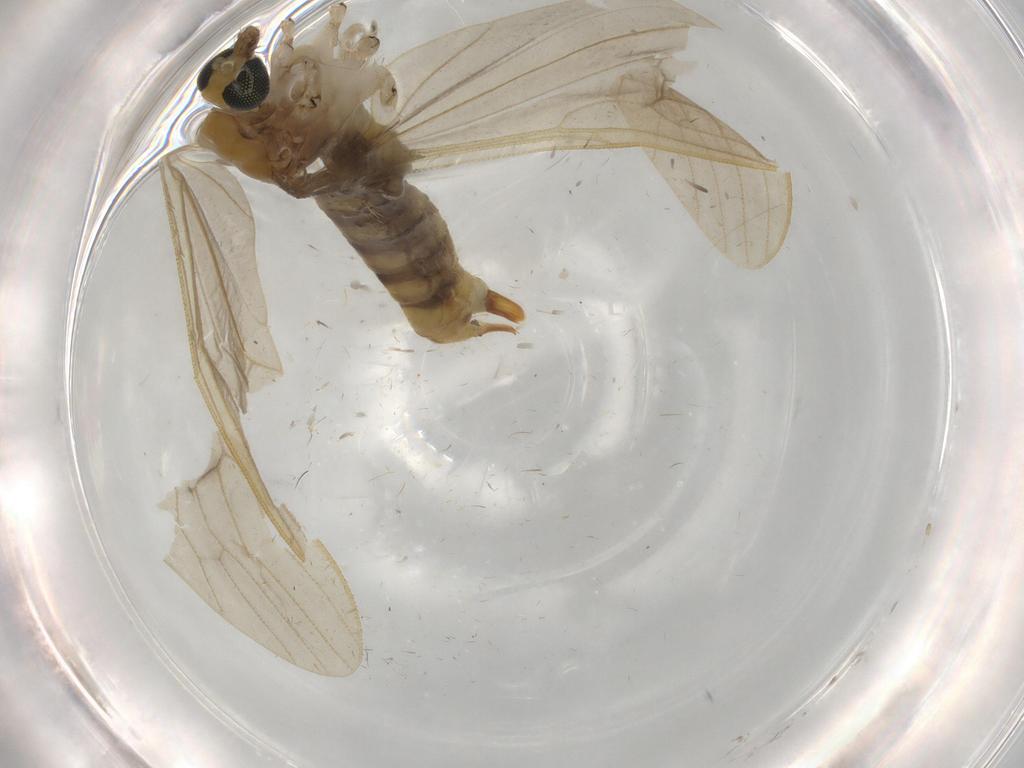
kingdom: Animalia
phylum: Arthropoda
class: Insecta
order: Diptera
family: Limoniidae
